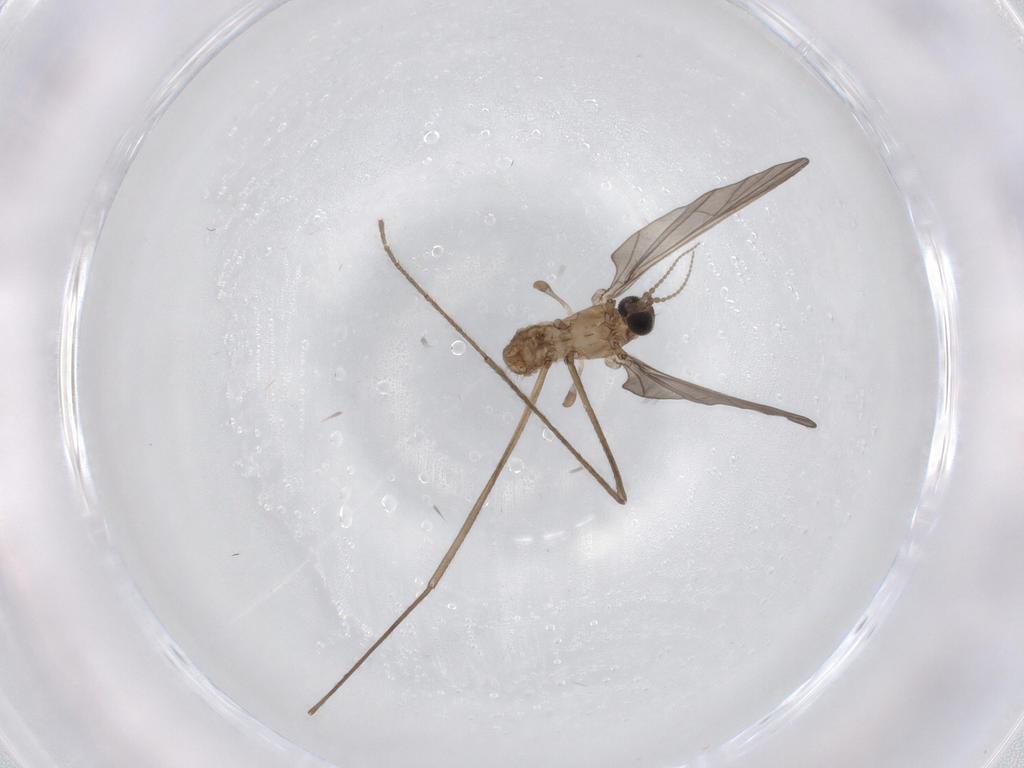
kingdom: Animalia
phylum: Arthropoda
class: Insecta
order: Diptera
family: Limoniidae
